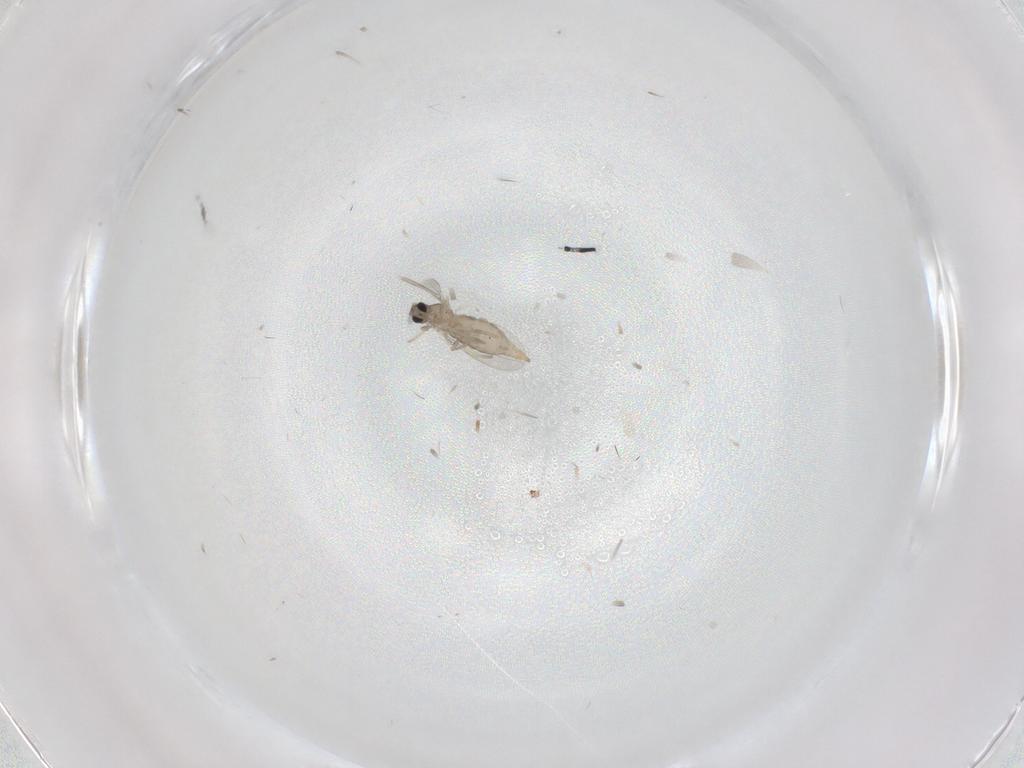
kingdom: Animalia
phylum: Arthropoda
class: Insecta
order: Diptera
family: Cecidomyiidae
